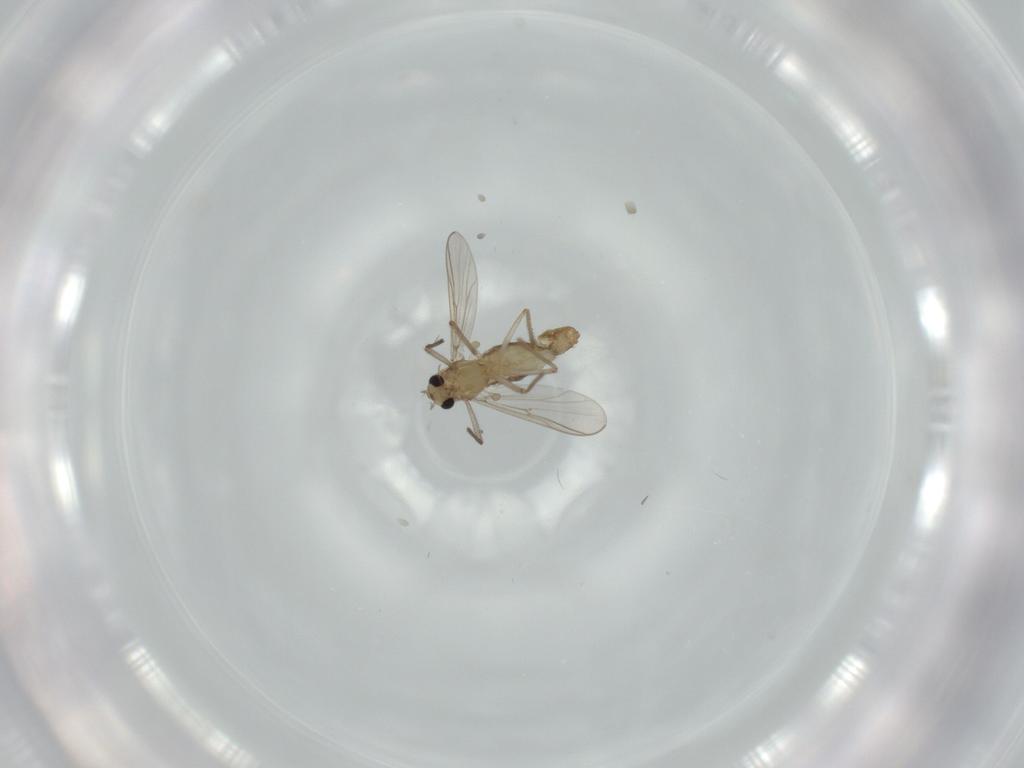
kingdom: Animalia
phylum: Arthropoda
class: Insecta
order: Diptera
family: Chironomidae
